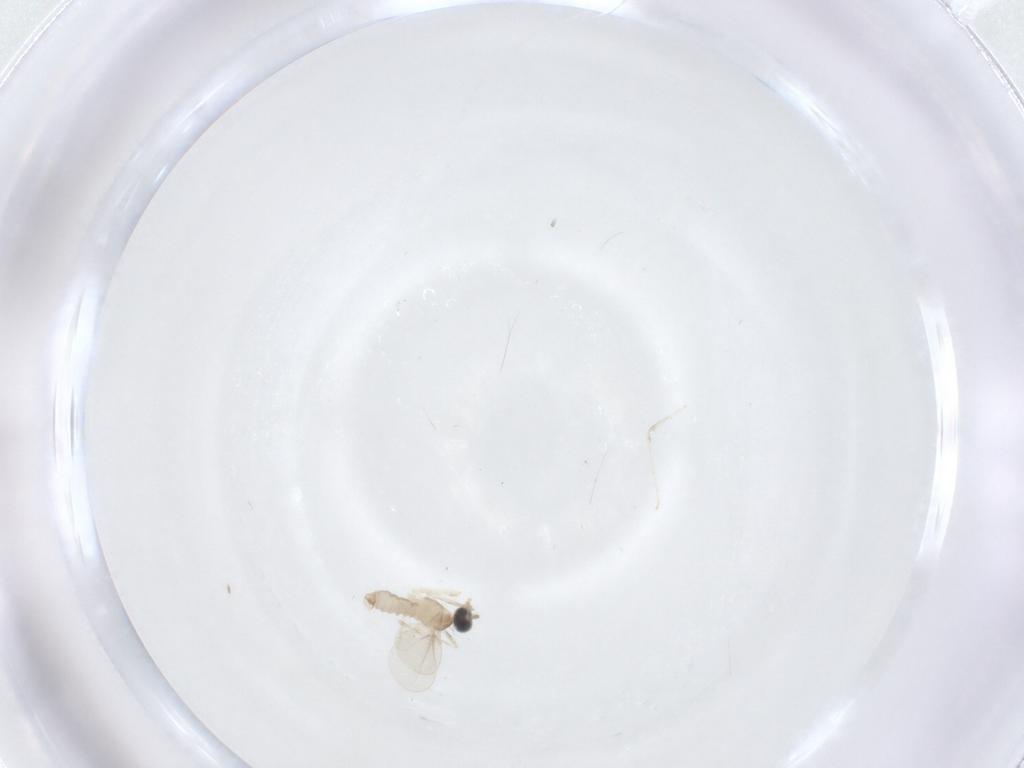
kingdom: Animalia
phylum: Arthropoda
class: Insecta
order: Diptera
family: Cecidomyiidae
